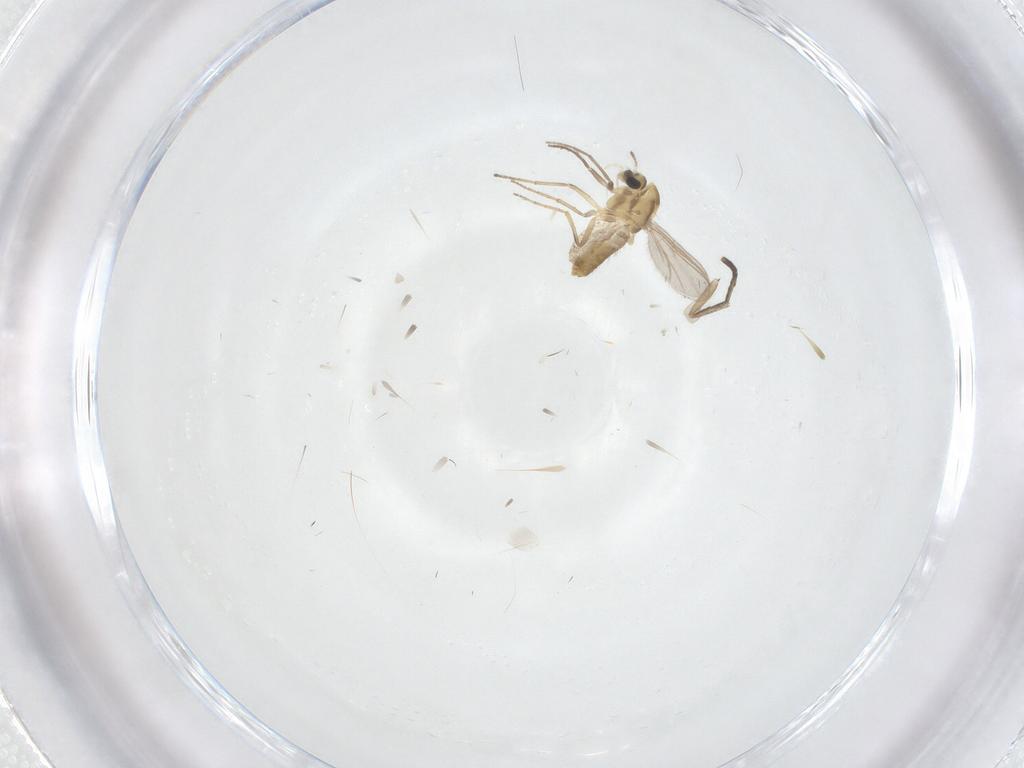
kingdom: Animalia
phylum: Arthropoda
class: Insecta
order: Diptera
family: Psychodidae
